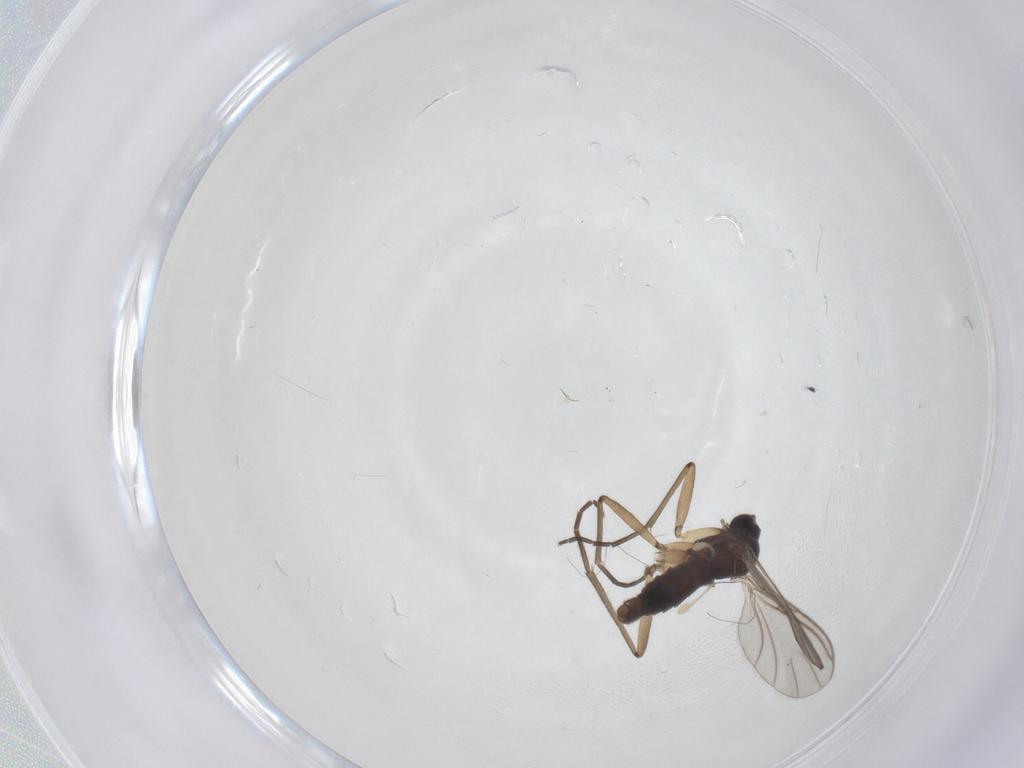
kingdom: Animalia
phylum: Arthropoda
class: Insecta
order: Diptera
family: Sciaridae
